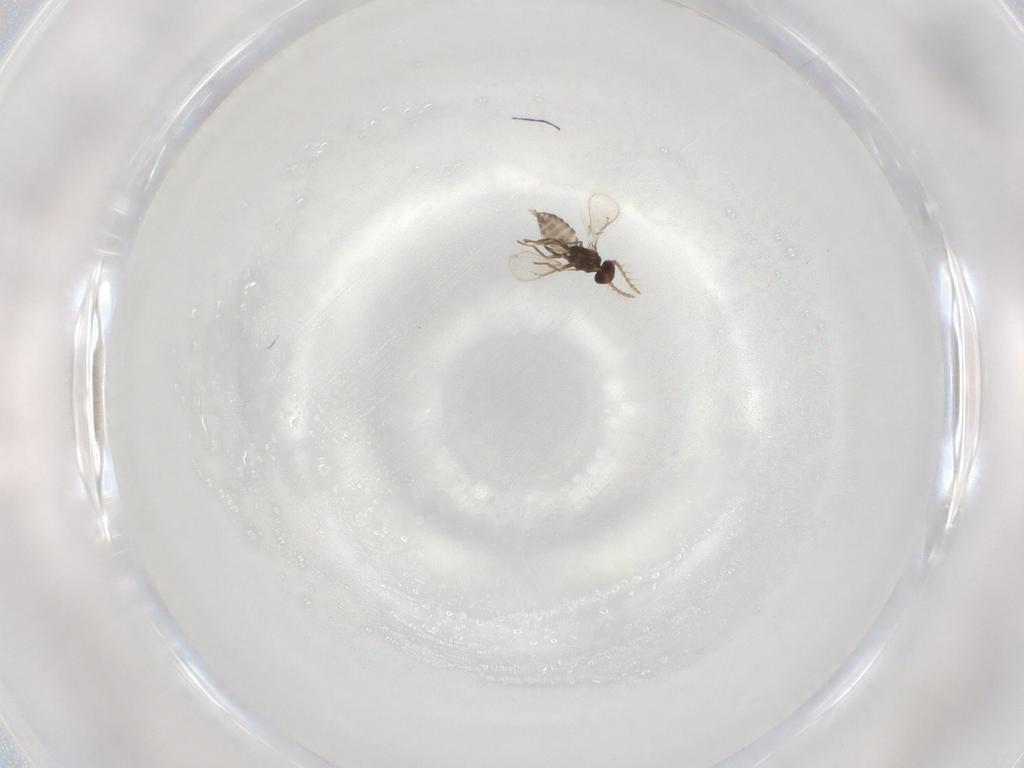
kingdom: Animalia
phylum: Arthropoda
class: Insecta
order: Hymenoptera
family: Eulophidae
